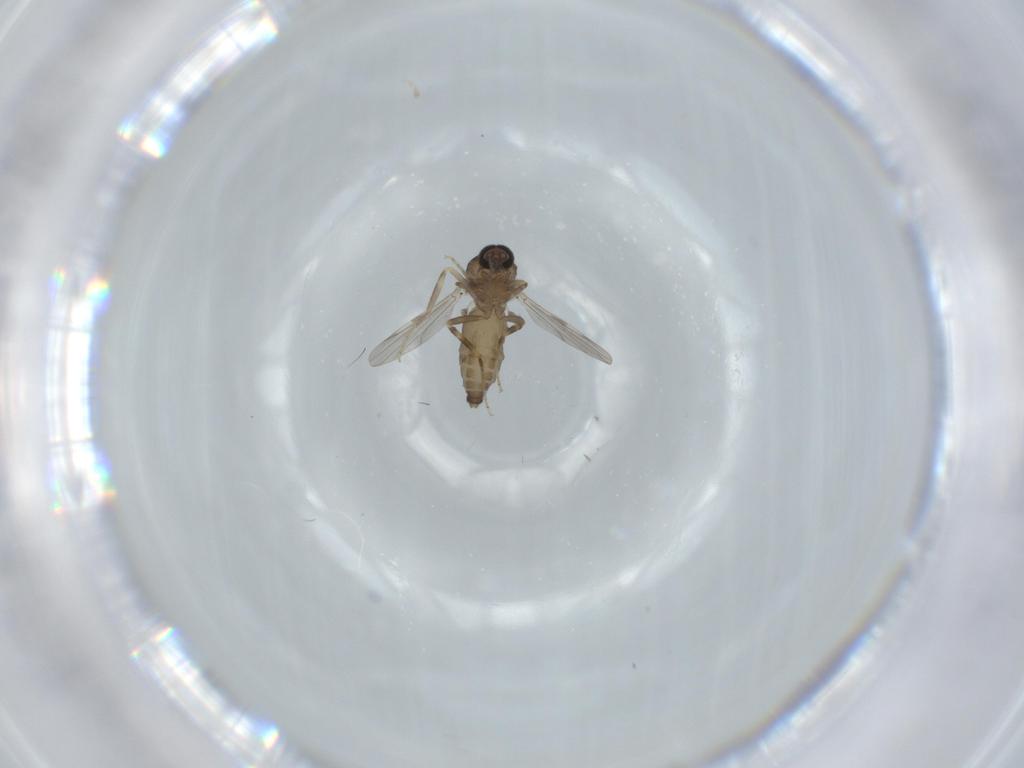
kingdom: Animalia
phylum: Arthropoda
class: Insecta
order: Diptera
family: Ceratopogonidae
